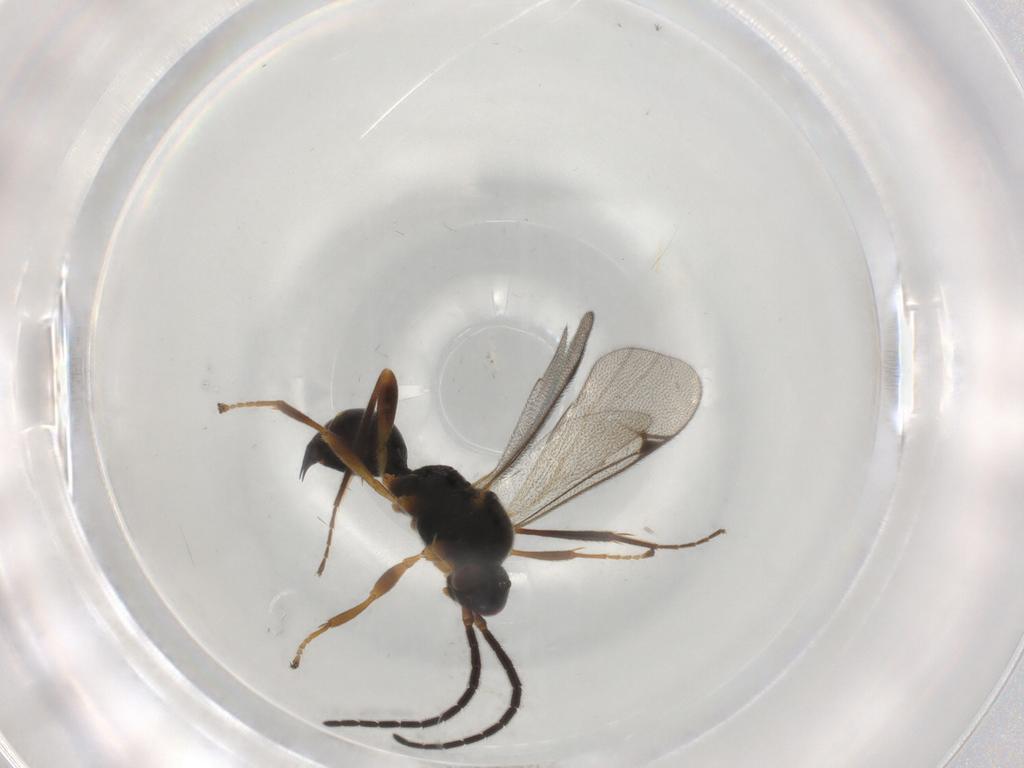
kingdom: Animalia
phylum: Arthropoda
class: Insecta
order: Hymenoptera
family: Proctotrupidae
